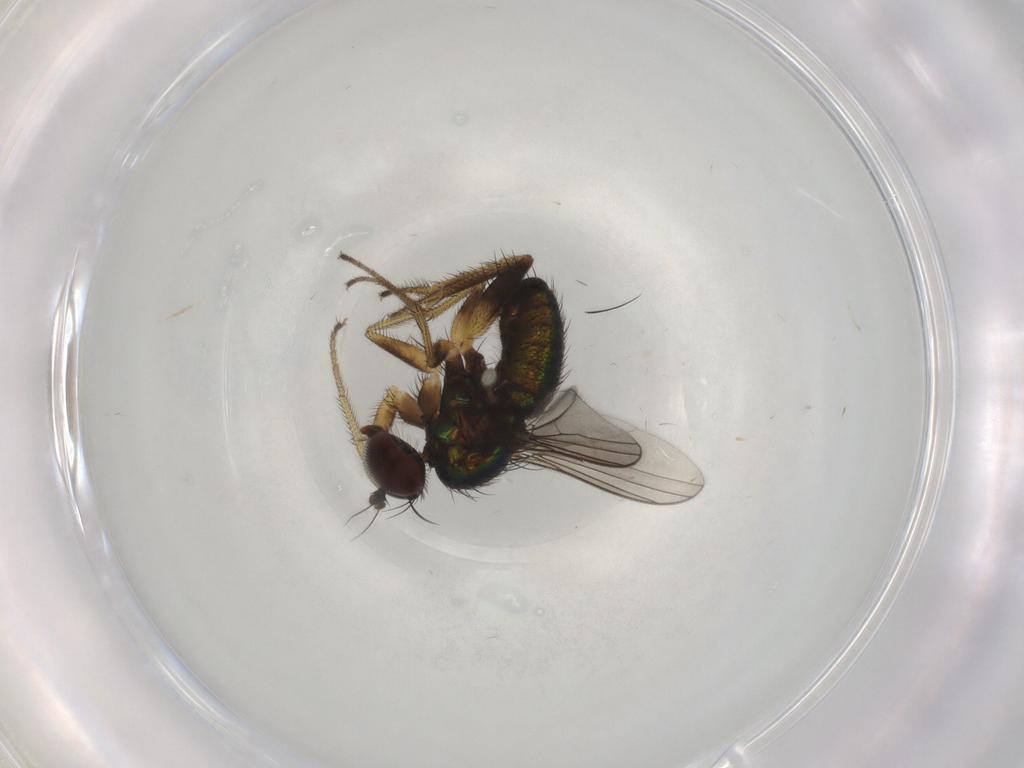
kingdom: Animalia
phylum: Arthropoda
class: Insecta
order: Diptera
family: Dolichopodidae
